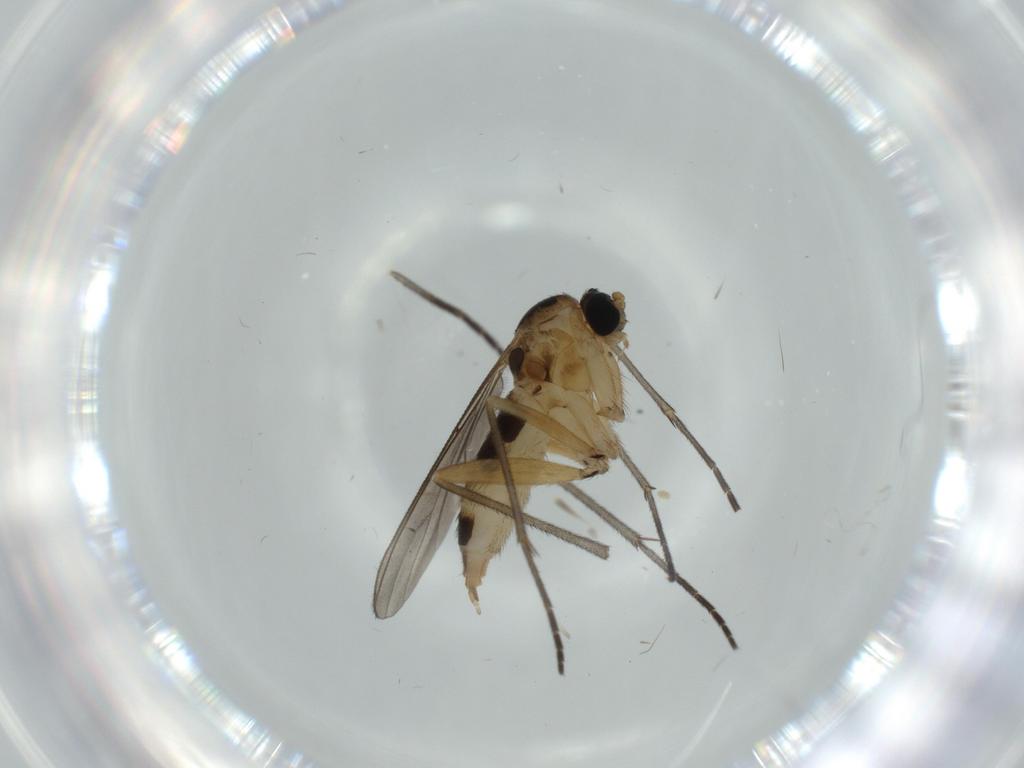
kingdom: Animalia
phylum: Arthropoda
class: Insecta
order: Diptera
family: Sciaridae
